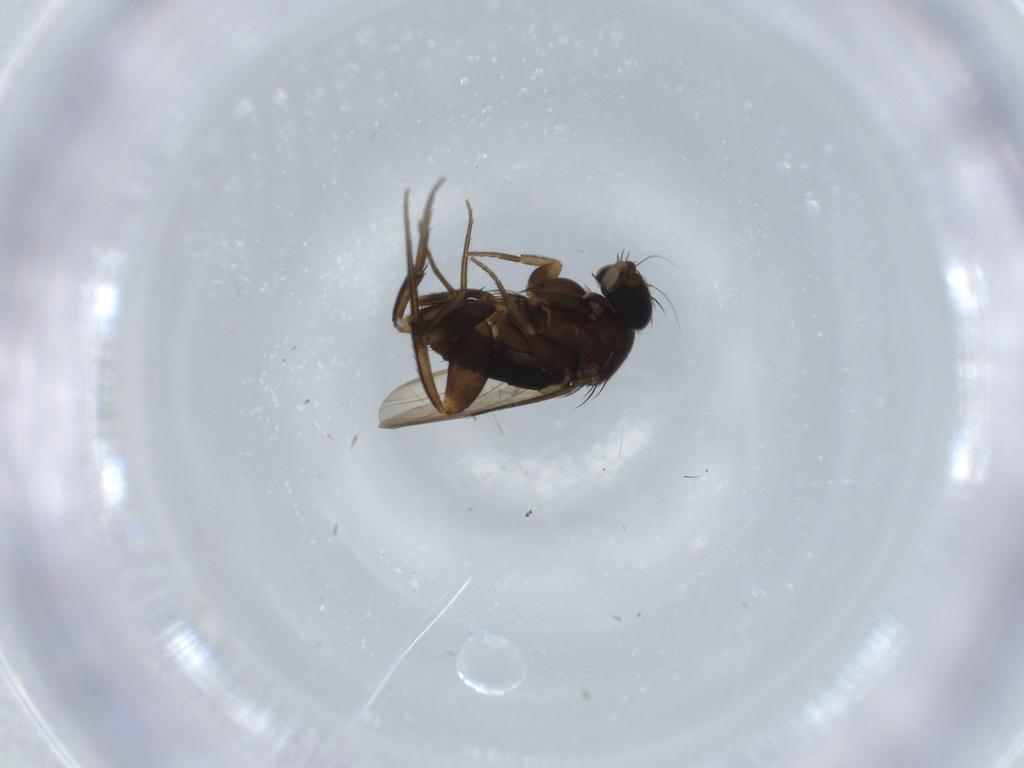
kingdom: Animalia
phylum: Arthropoda
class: Insecta
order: Diptera
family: Phoridae
